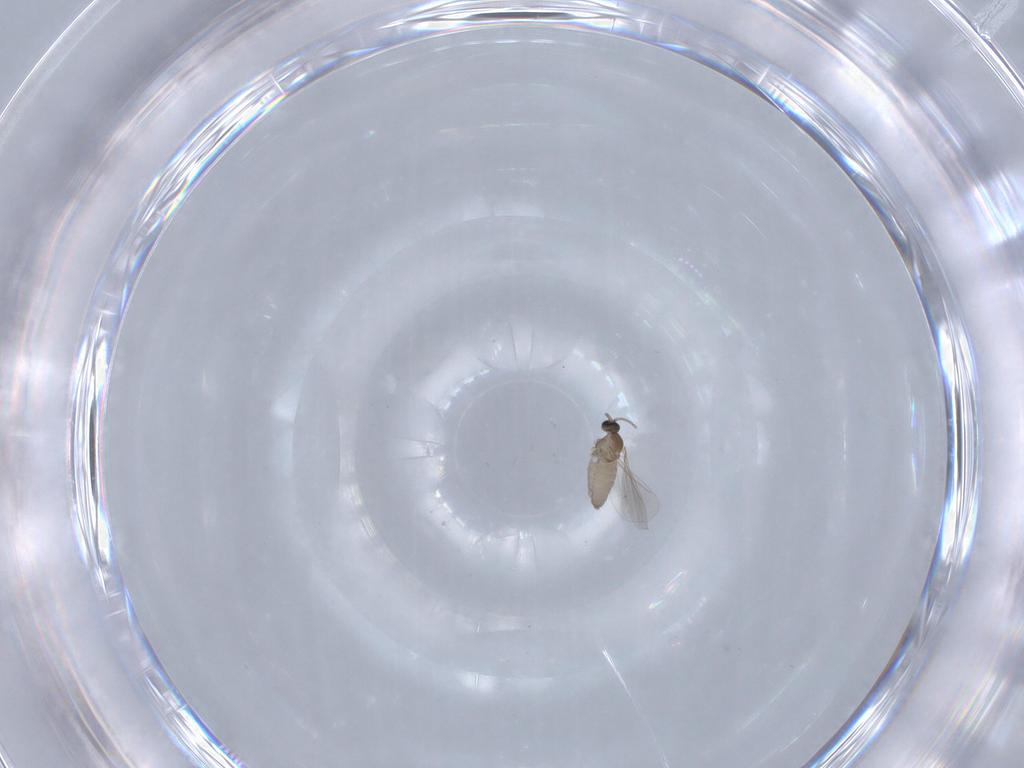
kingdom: Animalia
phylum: Arthropoda
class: Insecta
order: Diptera
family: Cecidomyiidae
